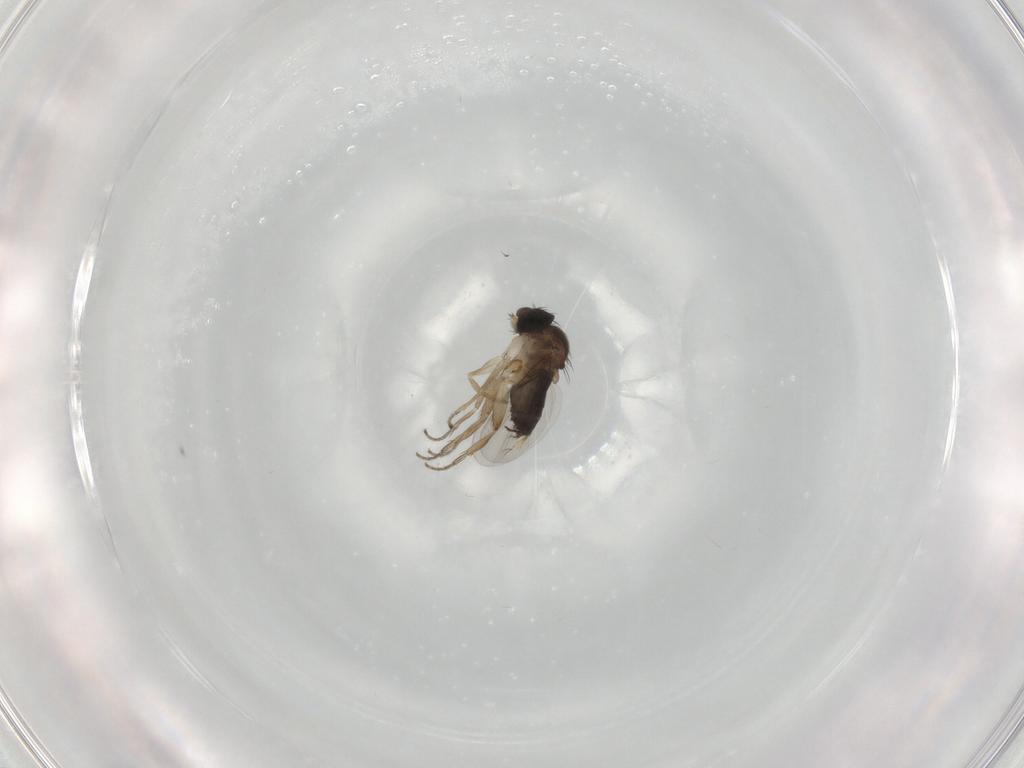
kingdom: Animalia
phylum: Arthropoda
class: Insecta
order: Diptera
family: Phoridae
